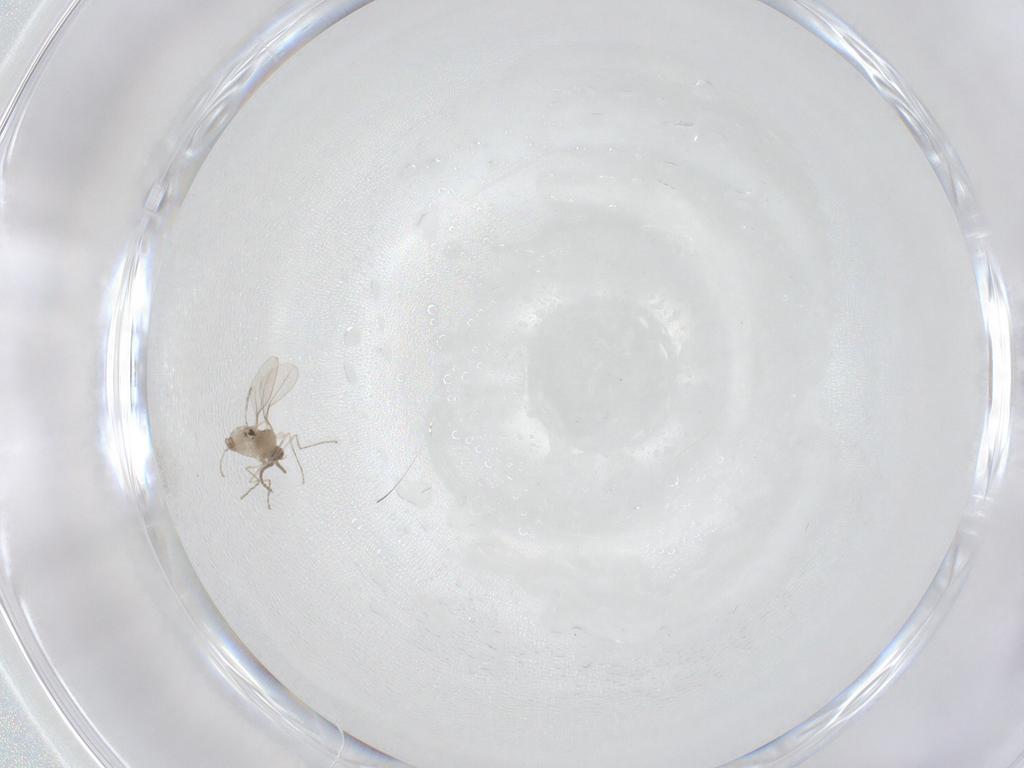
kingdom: Animalia
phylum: Arthropoda
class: Insecta
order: Diptera
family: Cecidomyiidae
